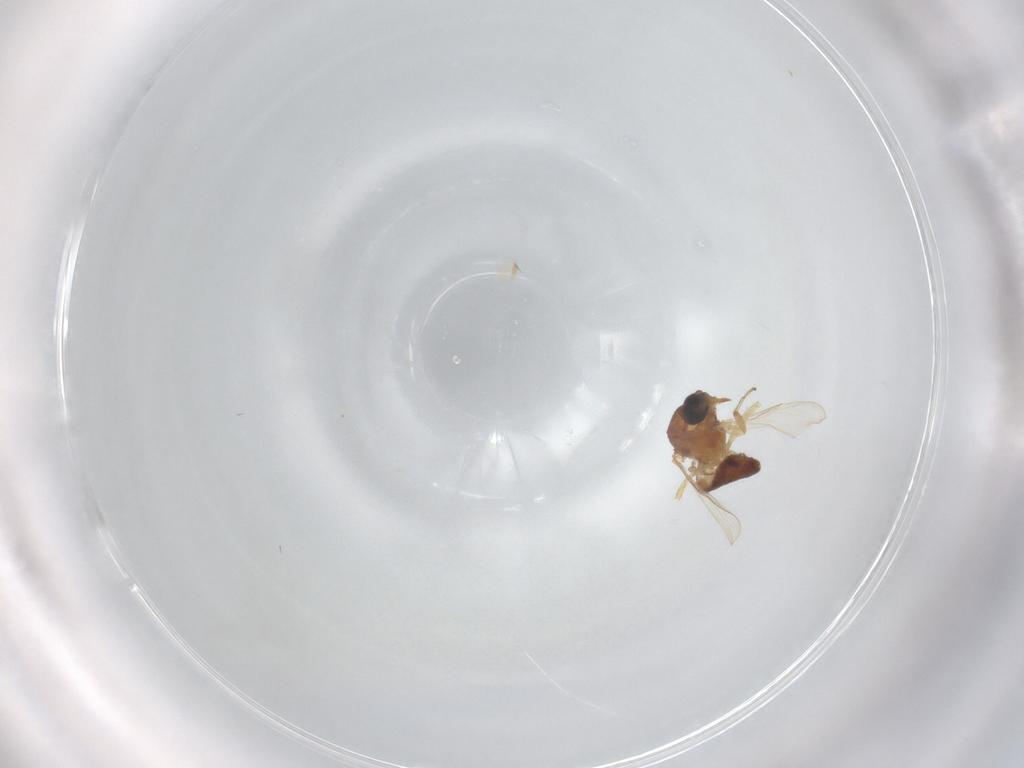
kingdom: Animalia
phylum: Arthropoda
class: Insecta
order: Diptera
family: Ceratopogonidae
